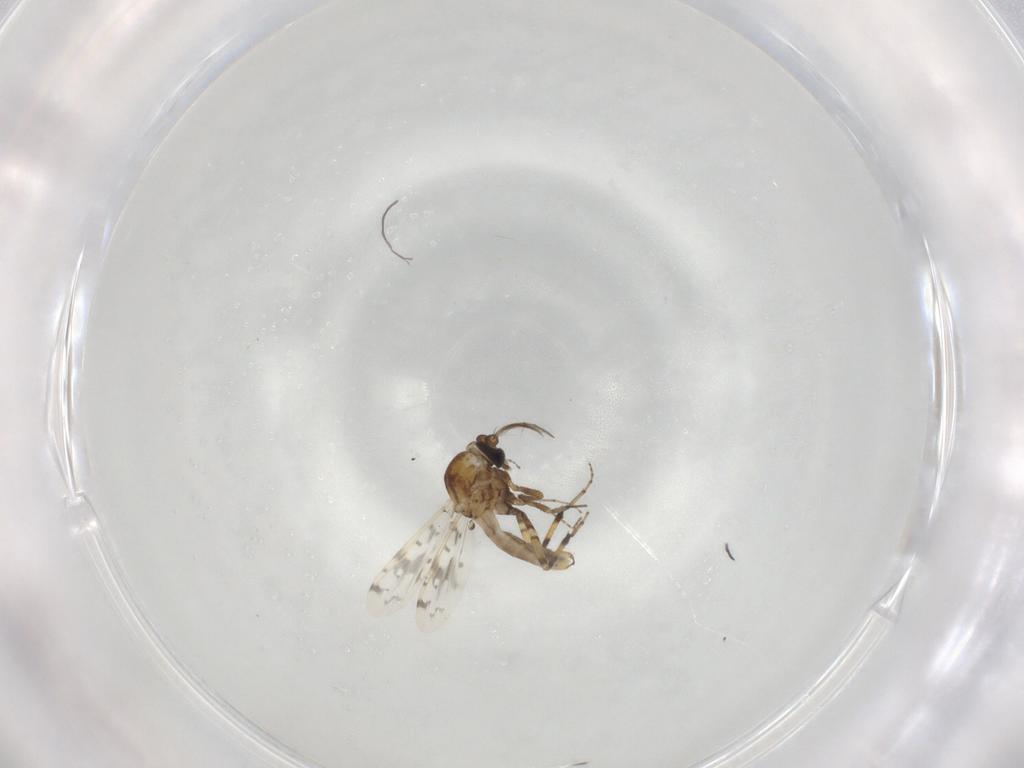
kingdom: Animalia
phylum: Arthropoda
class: Insecta
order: Diptera
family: Ceratopogonidae
